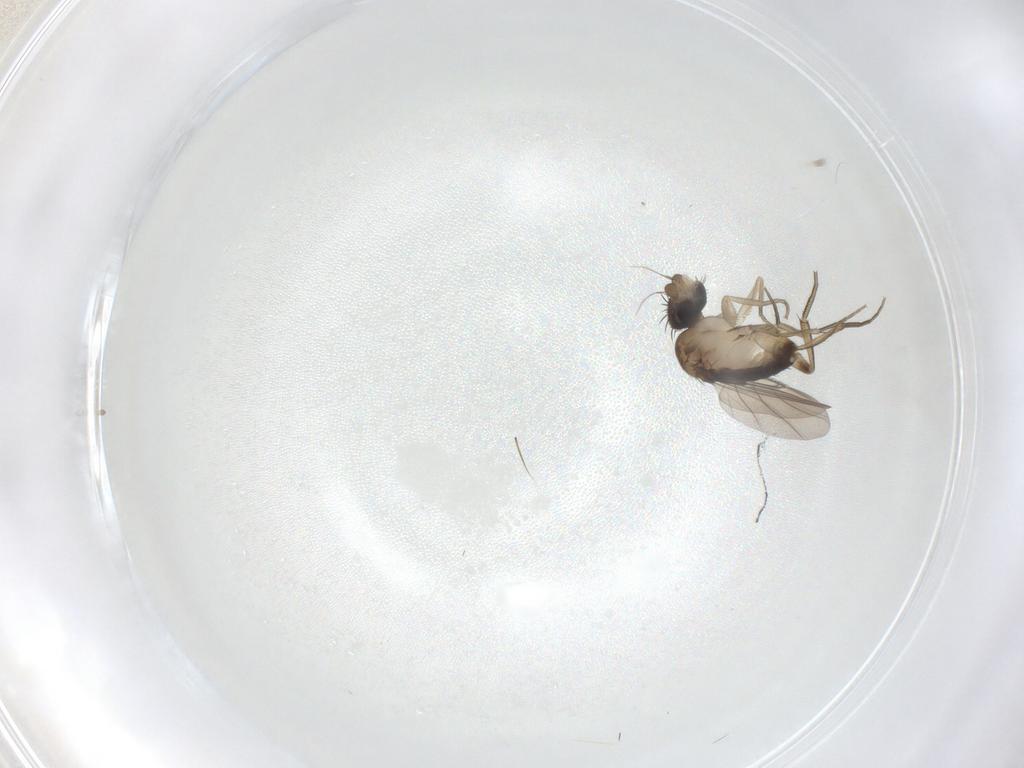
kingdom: Animalia
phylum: Arthropoda
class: Insecta
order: Diptera
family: Phoridae
